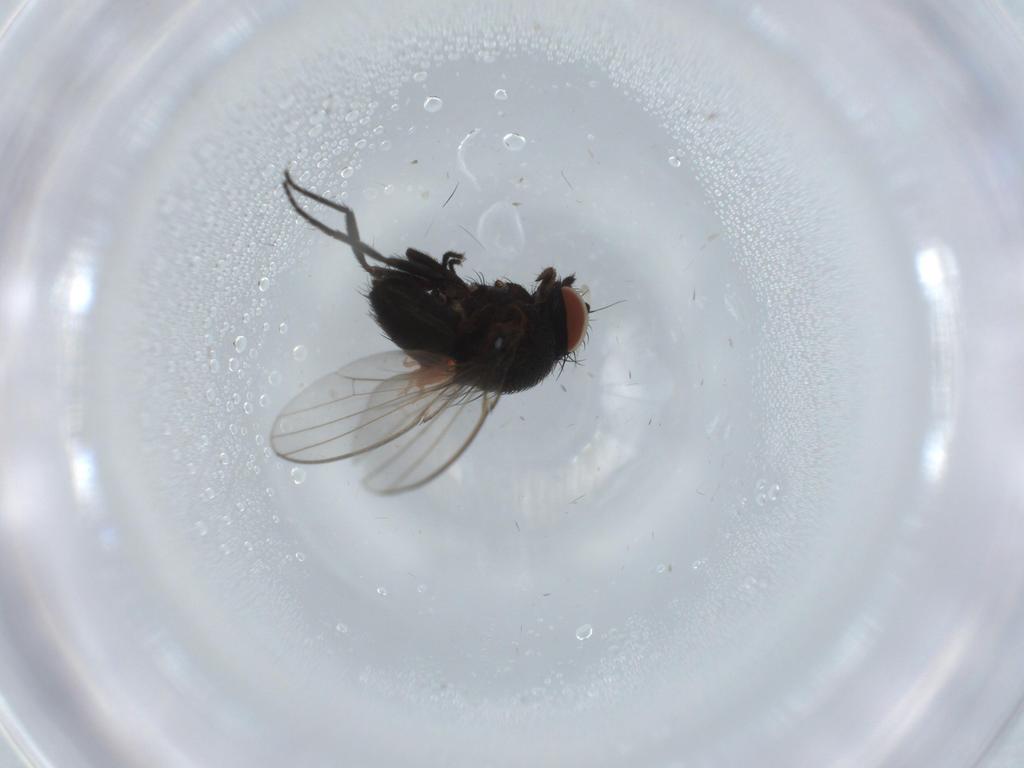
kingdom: Animalia
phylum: Arthropoda
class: Insecta
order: Diptera
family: Milichiidae
